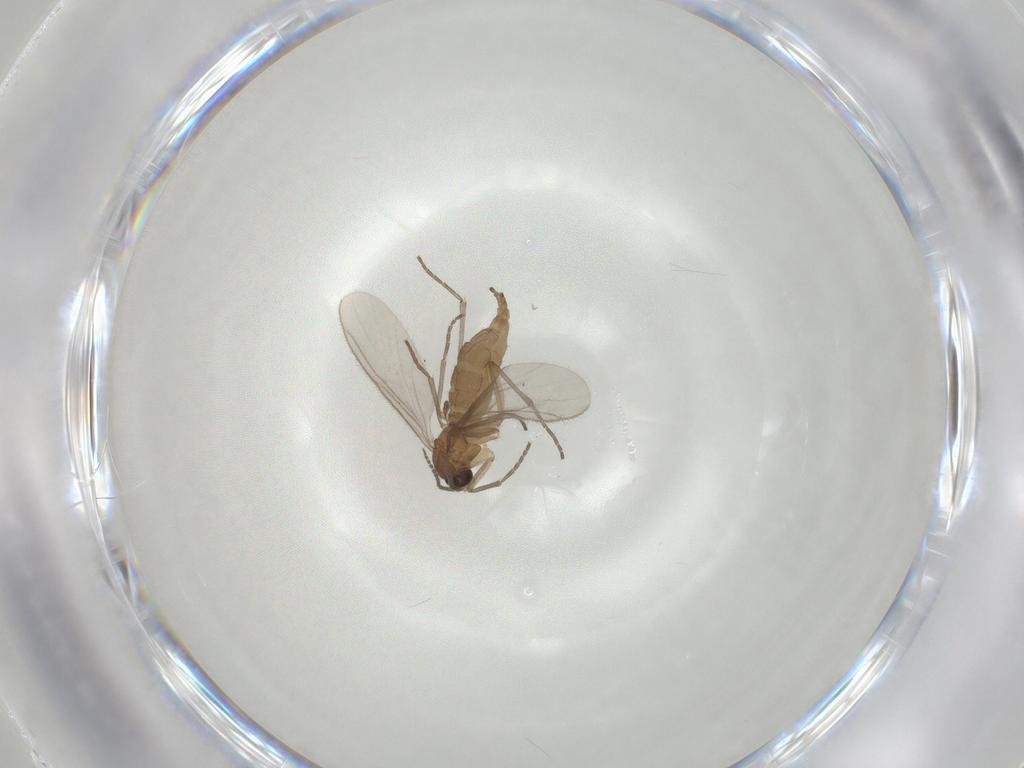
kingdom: Animalia
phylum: Arthropoda
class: Insecta
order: Diptera
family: Sciaridae
